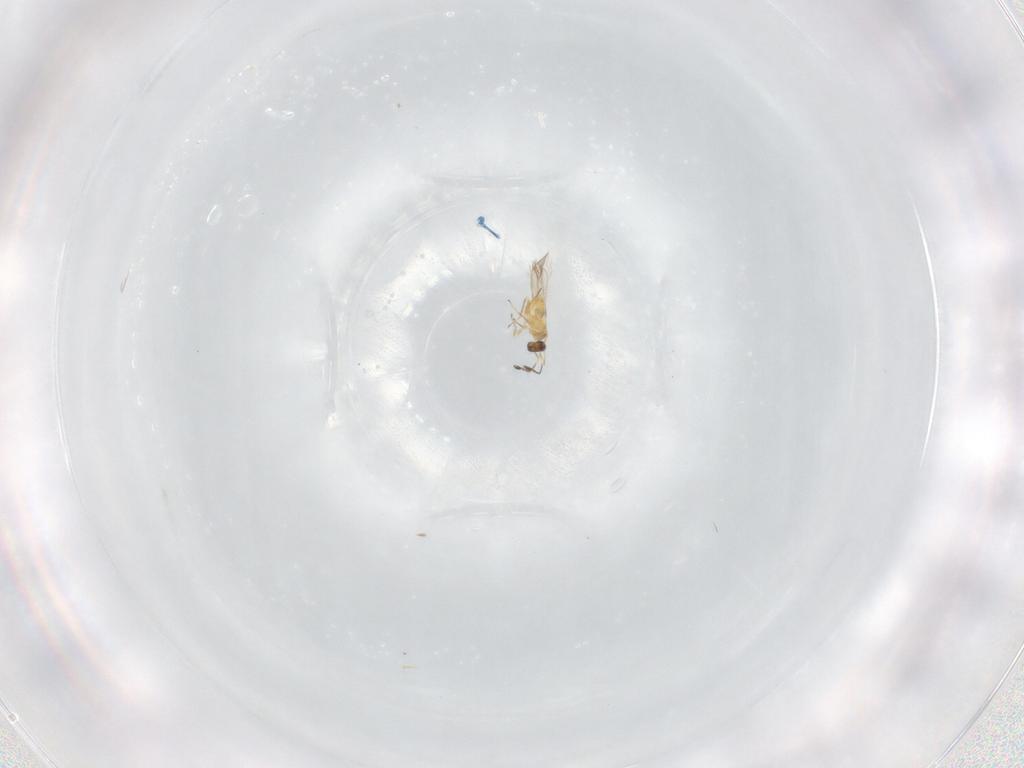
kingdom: Animalia
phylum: Arthropoda
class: Insecta
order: Hymenoptera
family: Mymaridae
